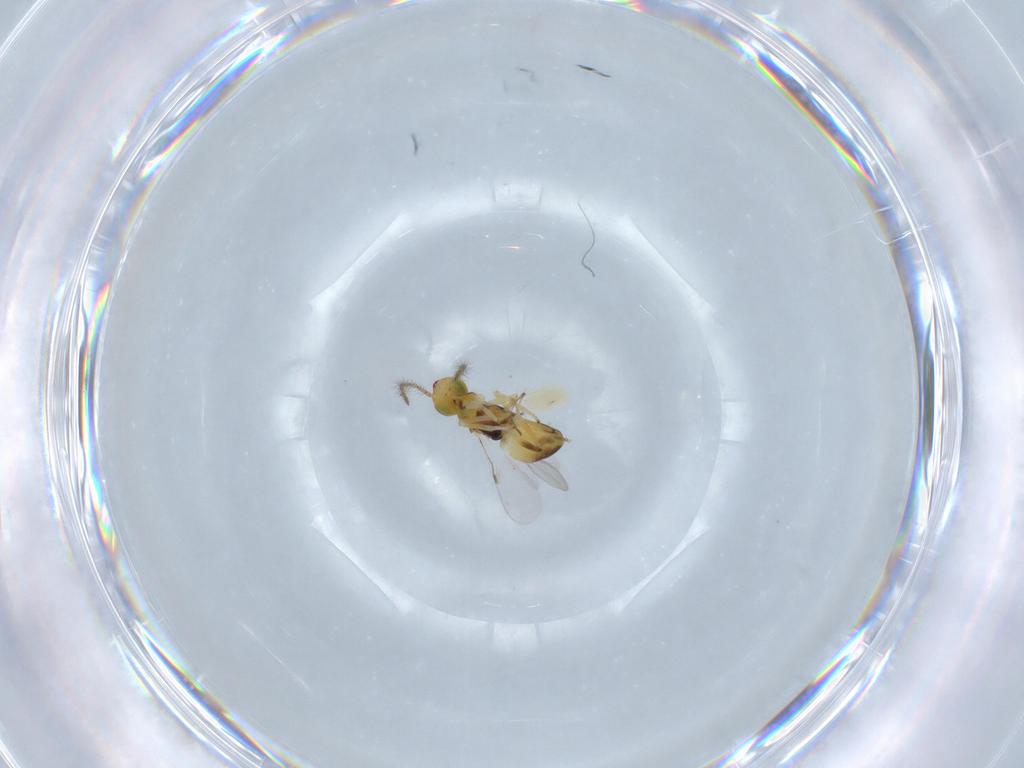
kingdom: Animalia
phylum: Arthropoda
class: Insecta
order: Hymenoptera
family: Encyrtidae
